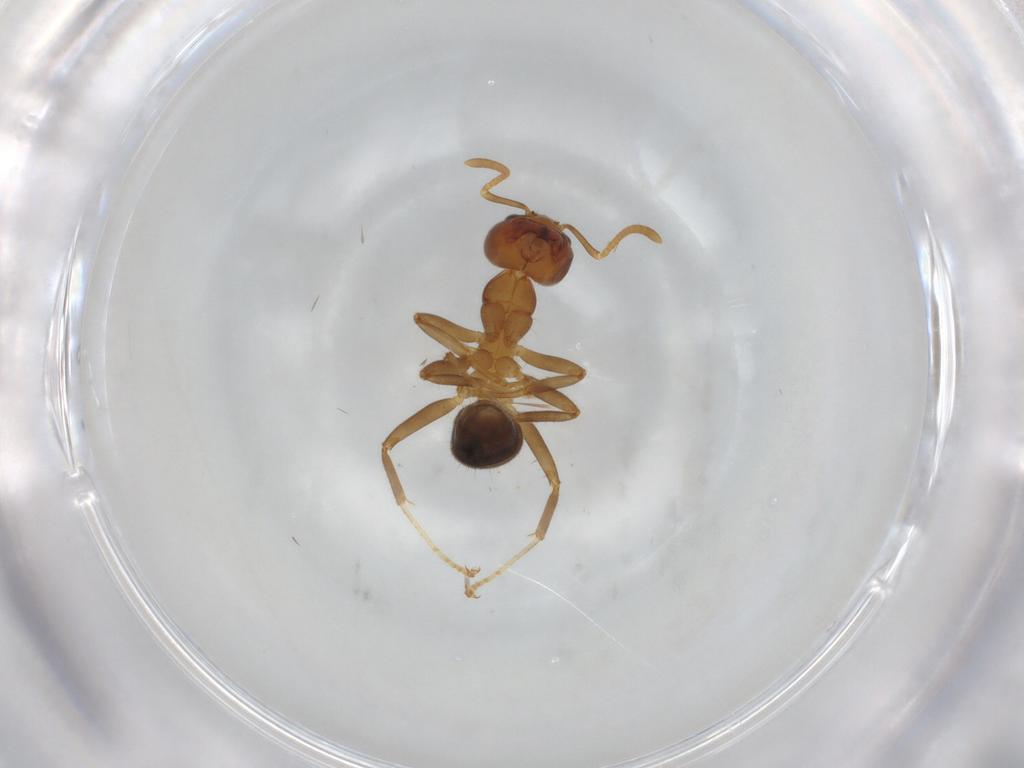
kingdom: Animalia
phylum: Arthropoda
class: Insecta
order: Hymenoptera
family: Formicidae
